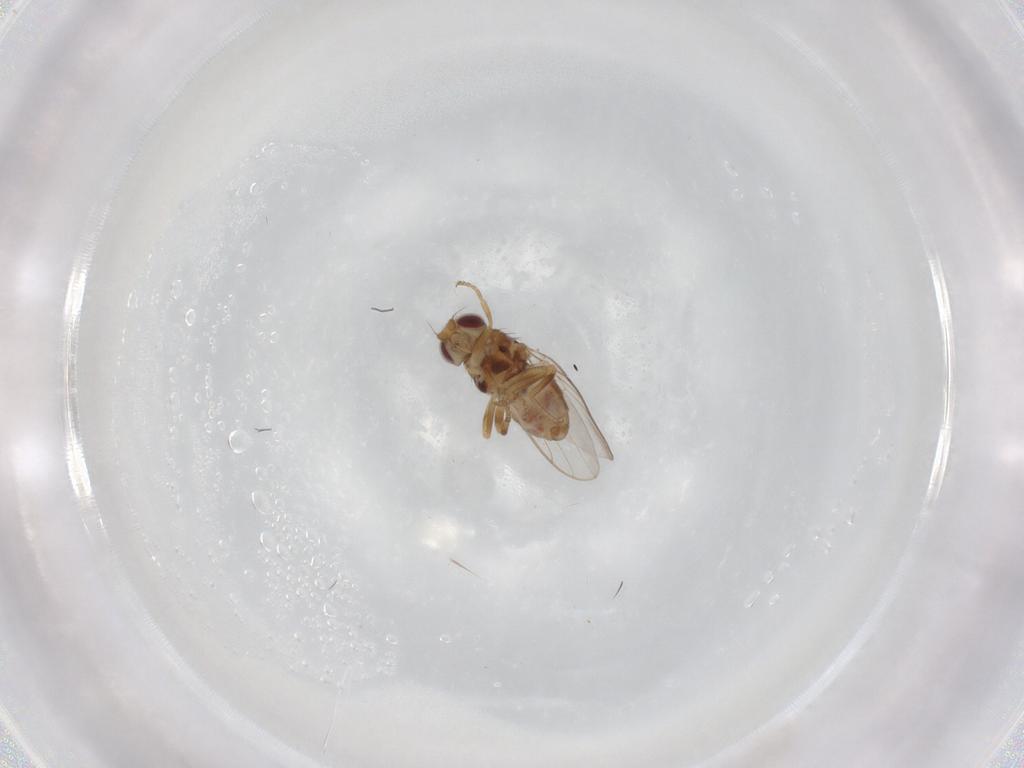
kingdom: Animalia
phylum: Arthropoda
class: Insecta
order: Diptera
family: Chloropidae
